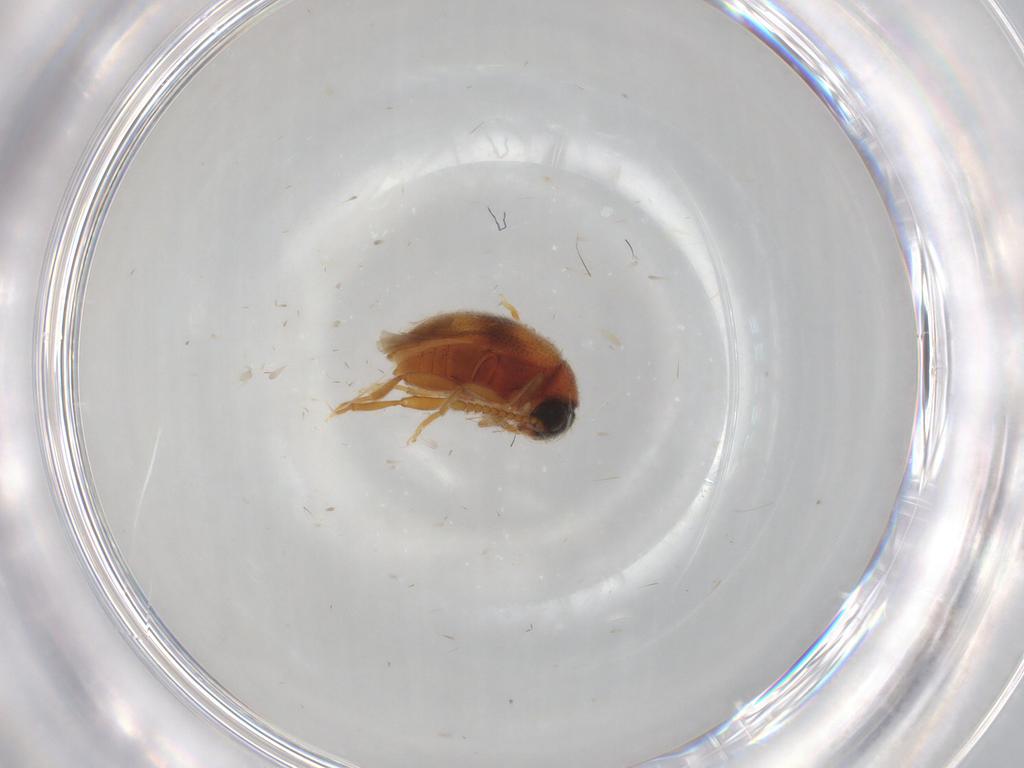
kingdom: Animalia
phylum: Arthropoda
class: Insecta
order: Coleoptera
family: Aderidae
